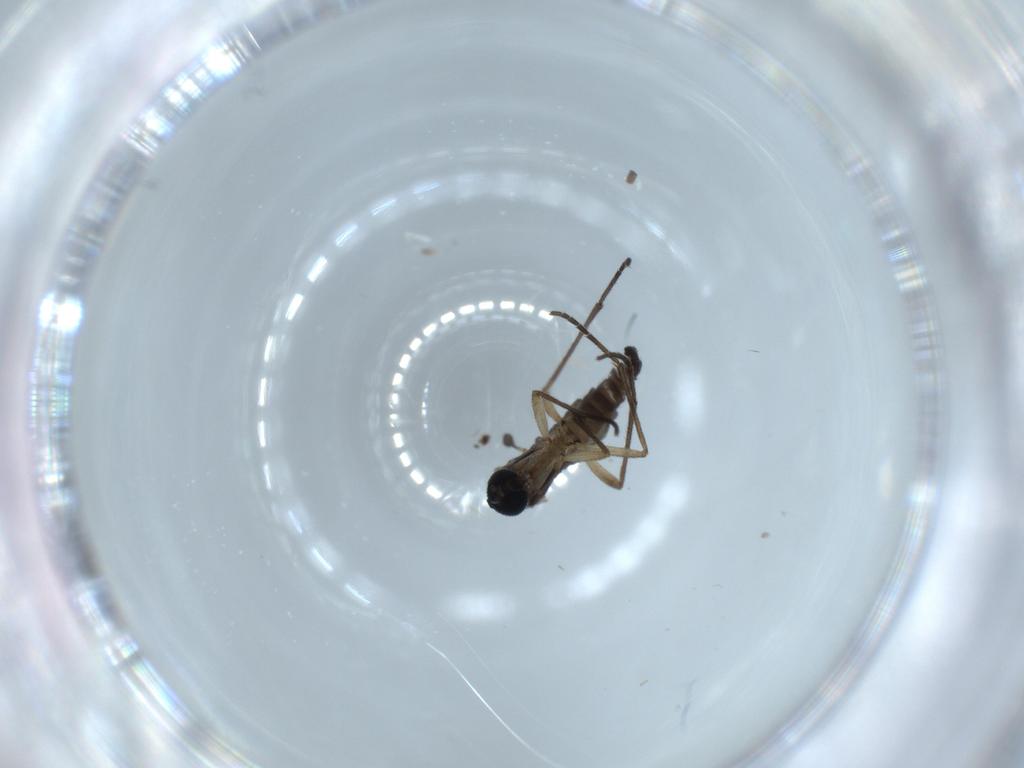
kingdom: Animalia
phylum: Arthropoda
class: Insecta
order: Diptera
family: Sciaridae
